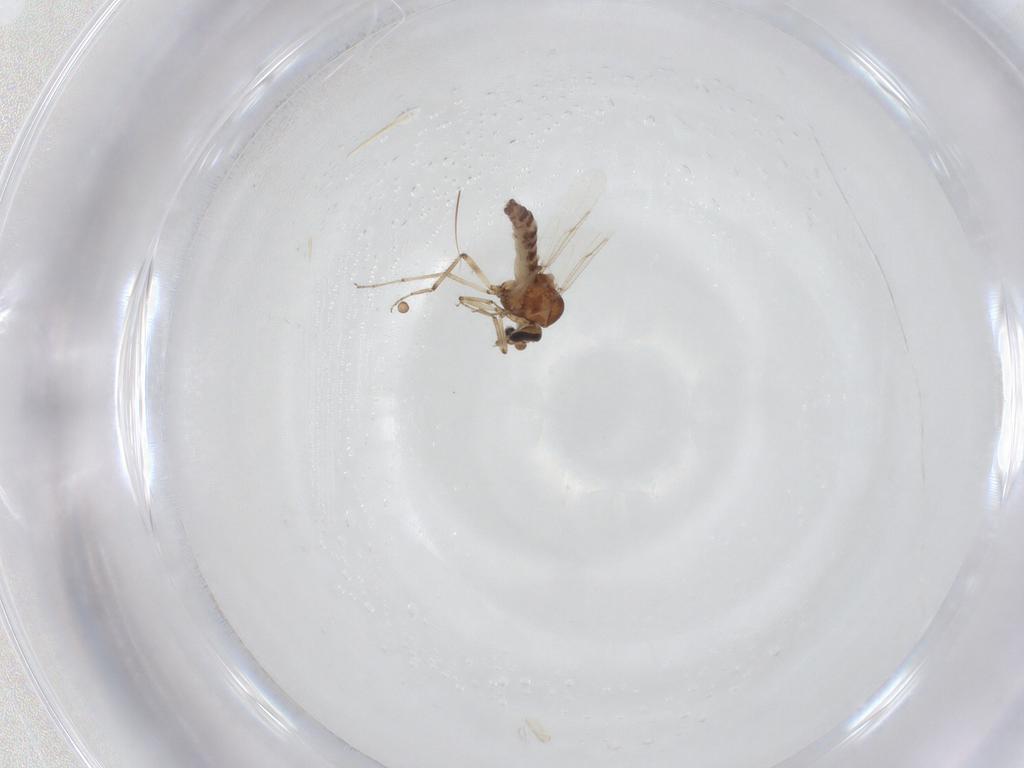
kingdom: Animalia
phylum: Arthropoda
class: Insecta
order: Diptera
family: Ceratopogonidae
